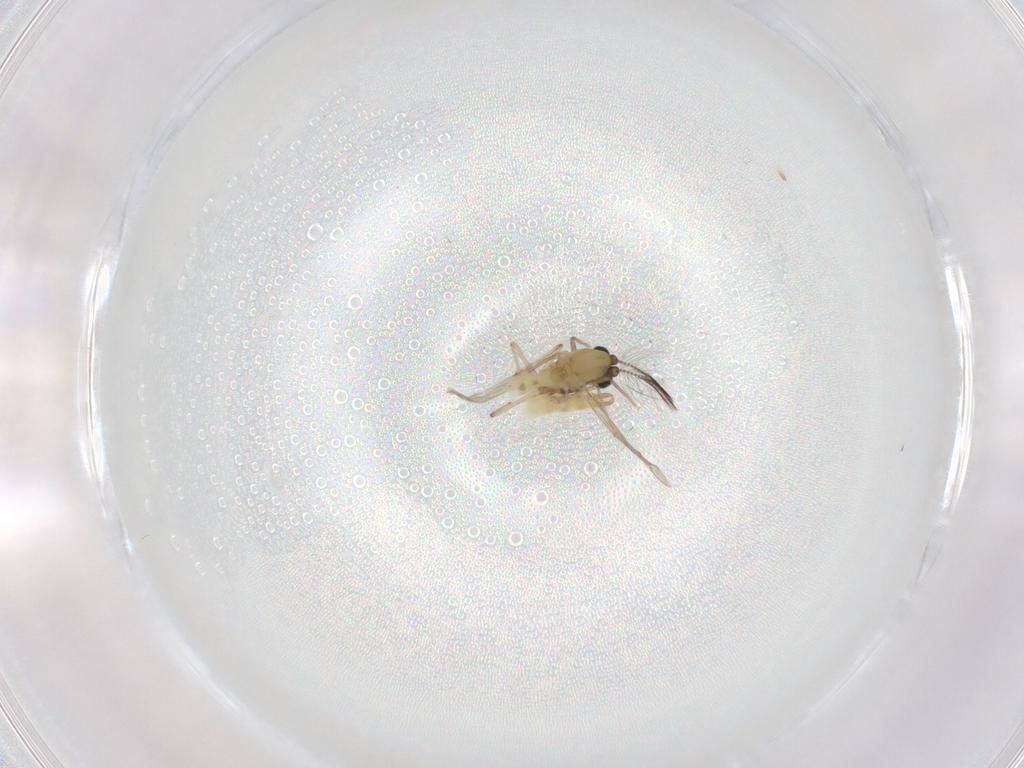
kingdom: Animalia
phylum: Arthropoda
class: Insecta
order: Diptera
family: Chironomidae
